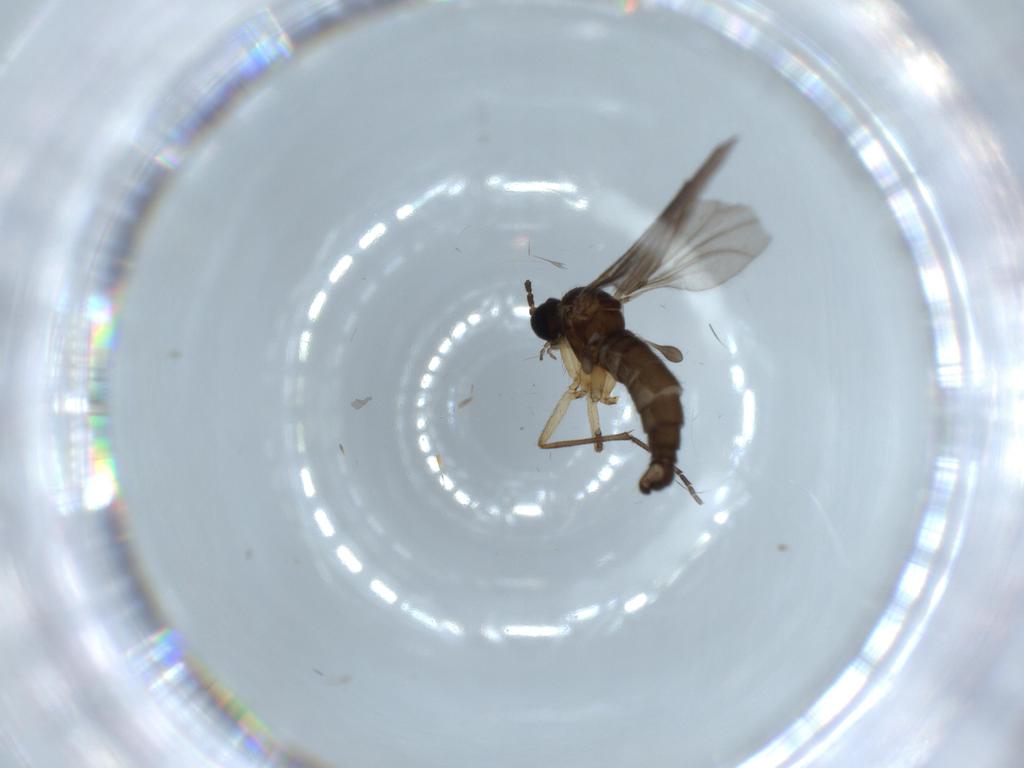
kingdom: Animalia
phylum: Arthropoda
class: Insecta
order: Diptera
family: Sciaridae
